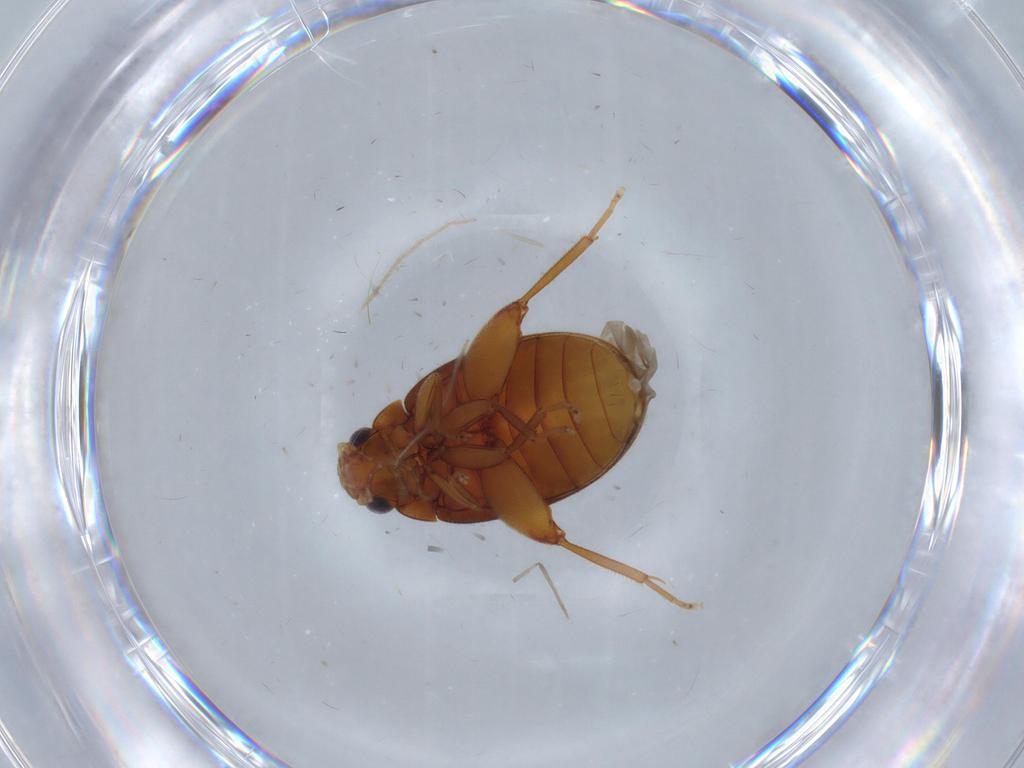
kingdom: Animalia
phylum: Arthropoda
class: Insecta
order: Coleoptera
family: Scirtidae
